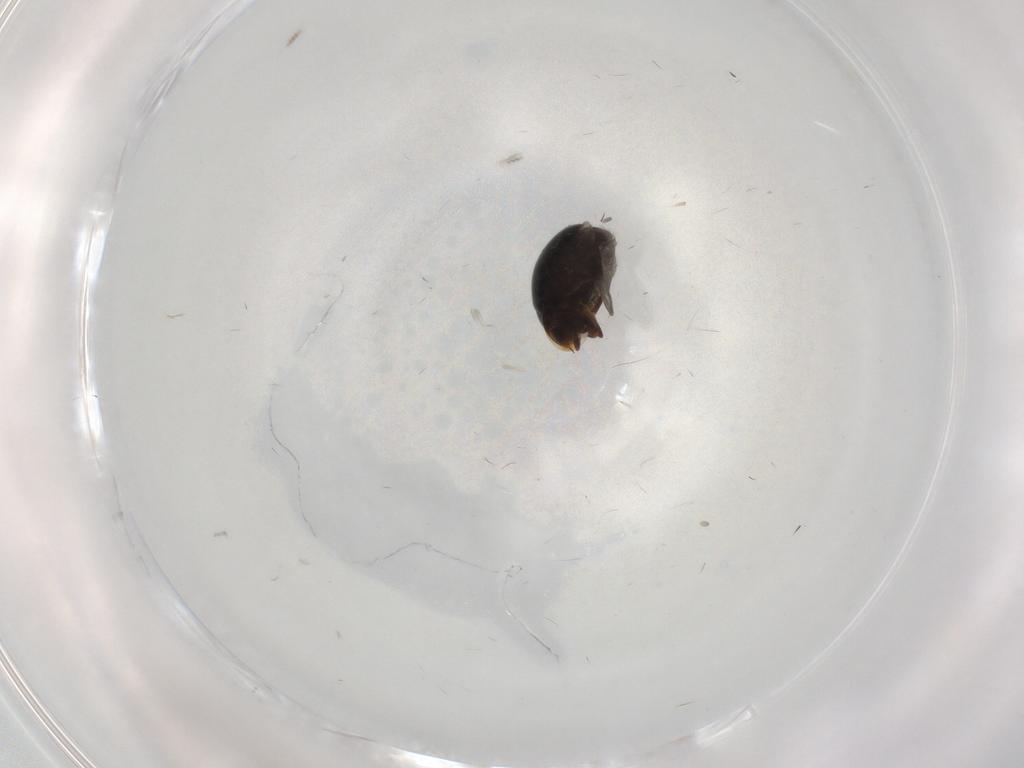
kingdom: Animalia
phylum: Arthropoda
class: Insecta
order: Coleoptera
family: Corylophidae
